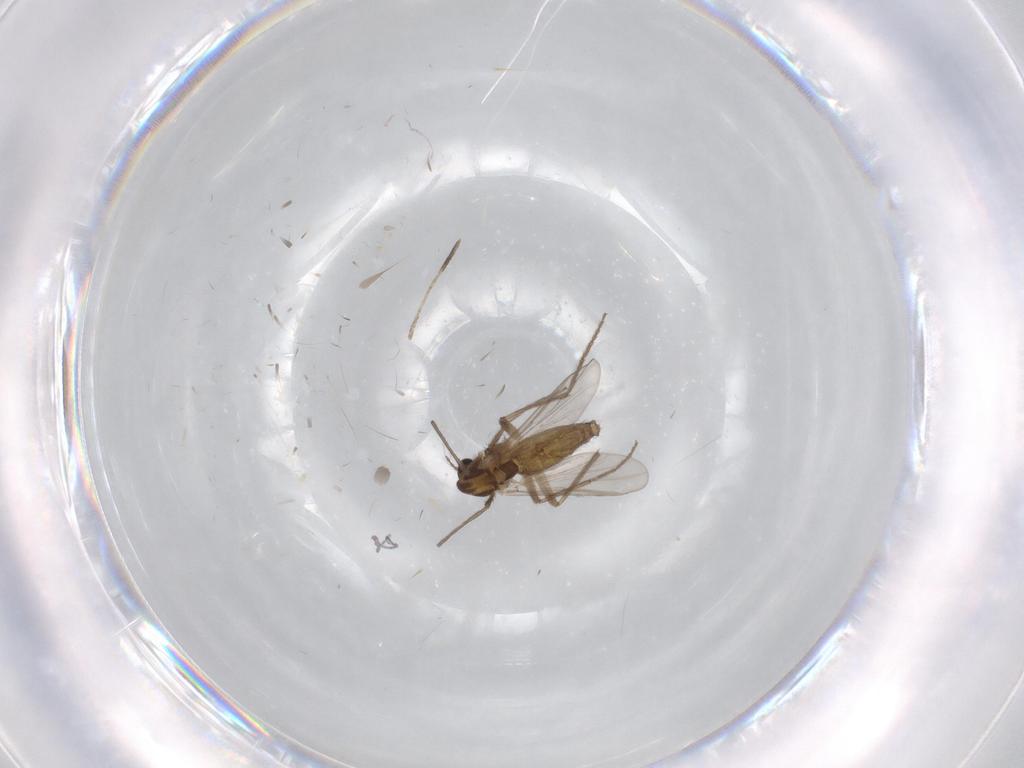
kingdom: Animalia
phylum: Arthropoda
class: Insecta
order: Diptera
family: Chironomidae
